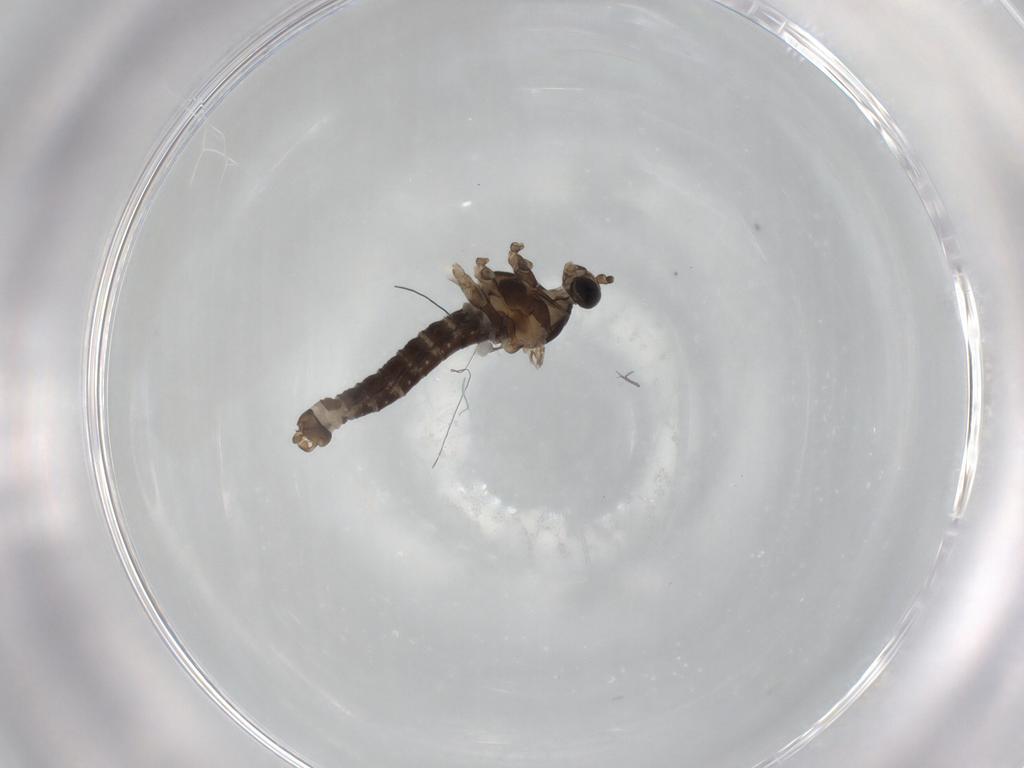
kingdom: Animalia
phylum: Arthropoda
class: Insecta
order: Diptera
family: Cecidomyiidae
